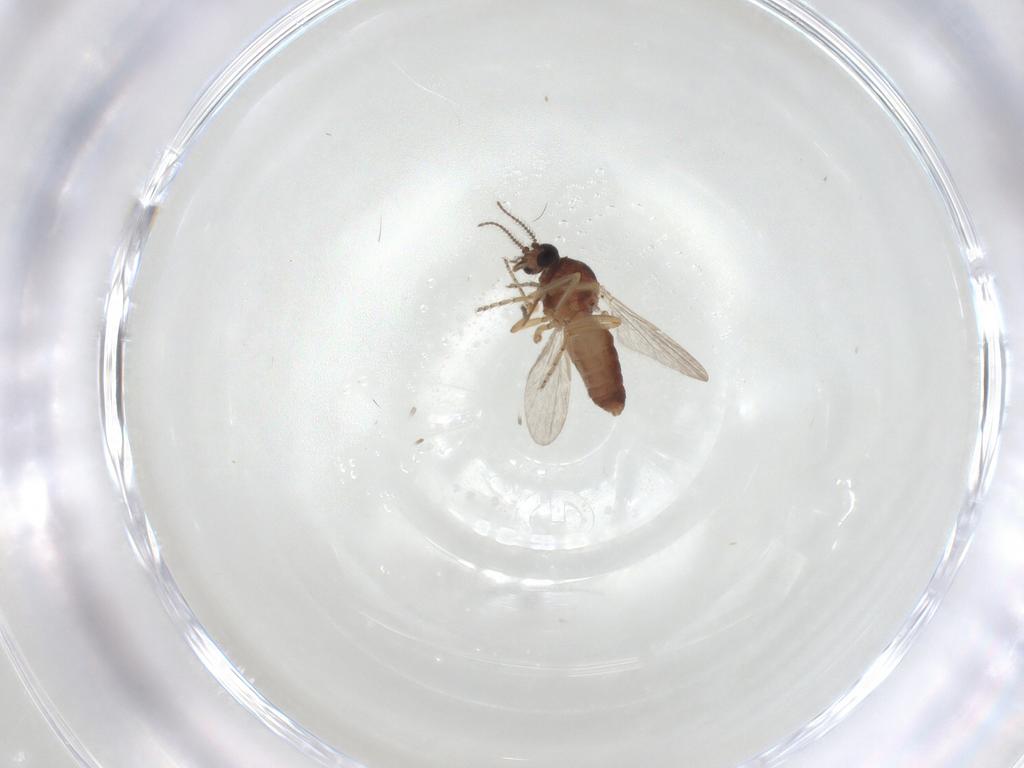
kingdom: Animalia
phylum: Arthropoda
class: Insecta
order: Diptera
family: Ceratopogonidae
